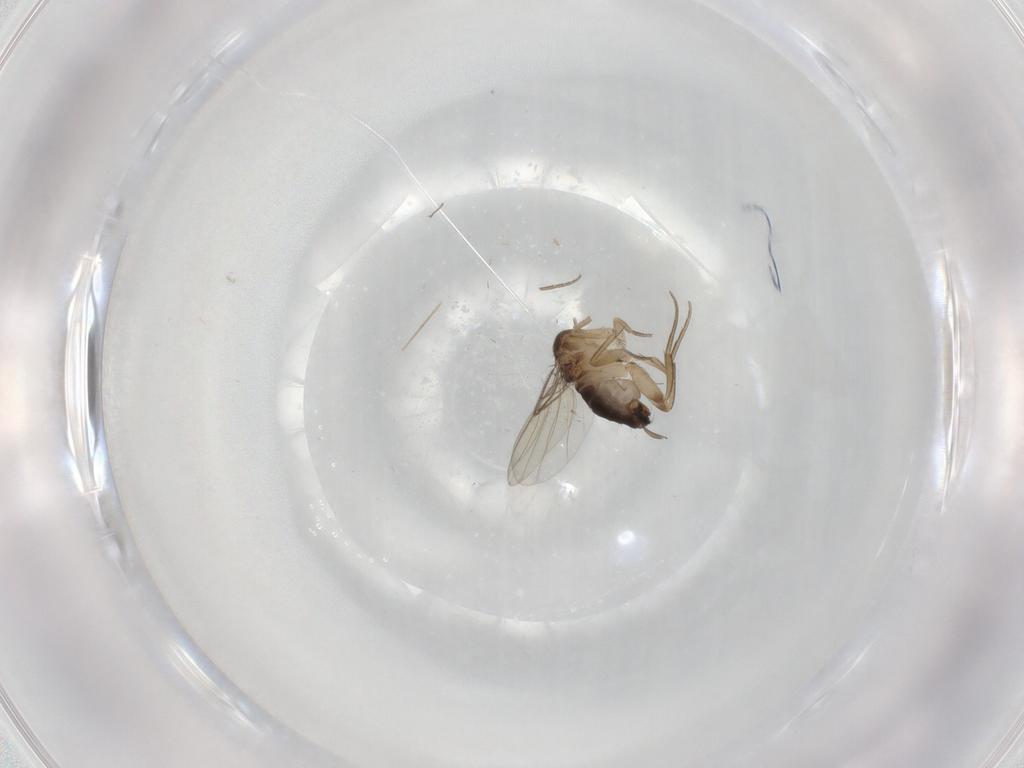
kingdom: Animalia
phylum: Arthropoda
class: Insecta
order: Diptera
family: Phoridae
